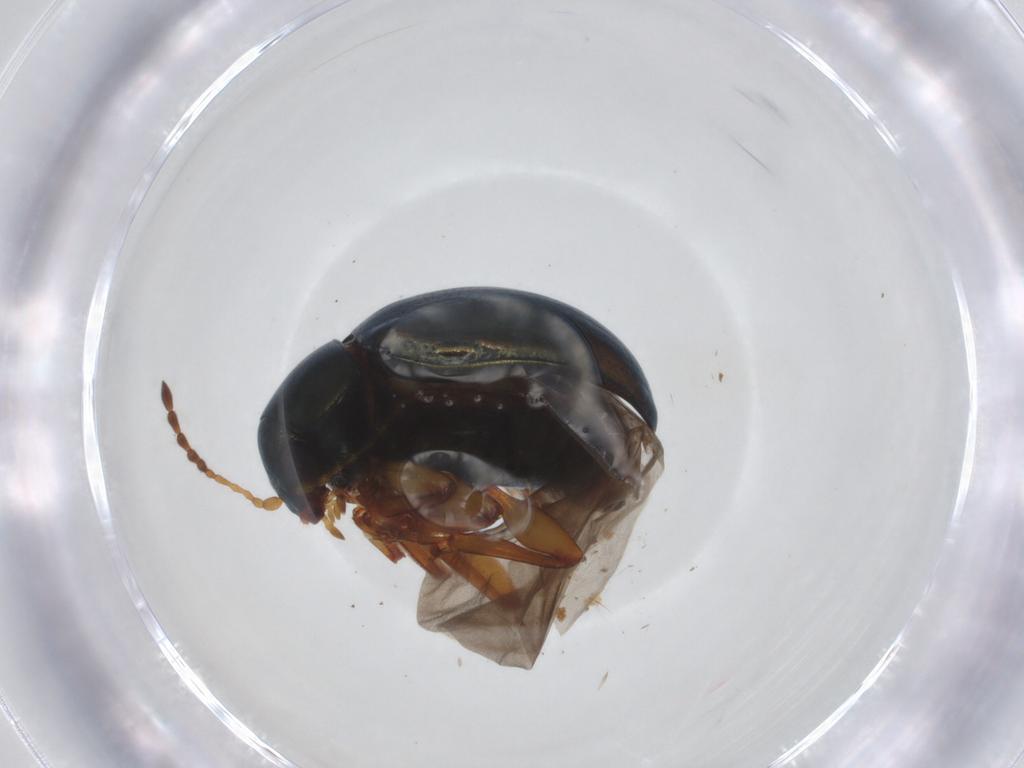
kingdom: Animalia
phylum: Arthropoda
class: Insecta
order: Coleoptera
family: Chrysomelidae
